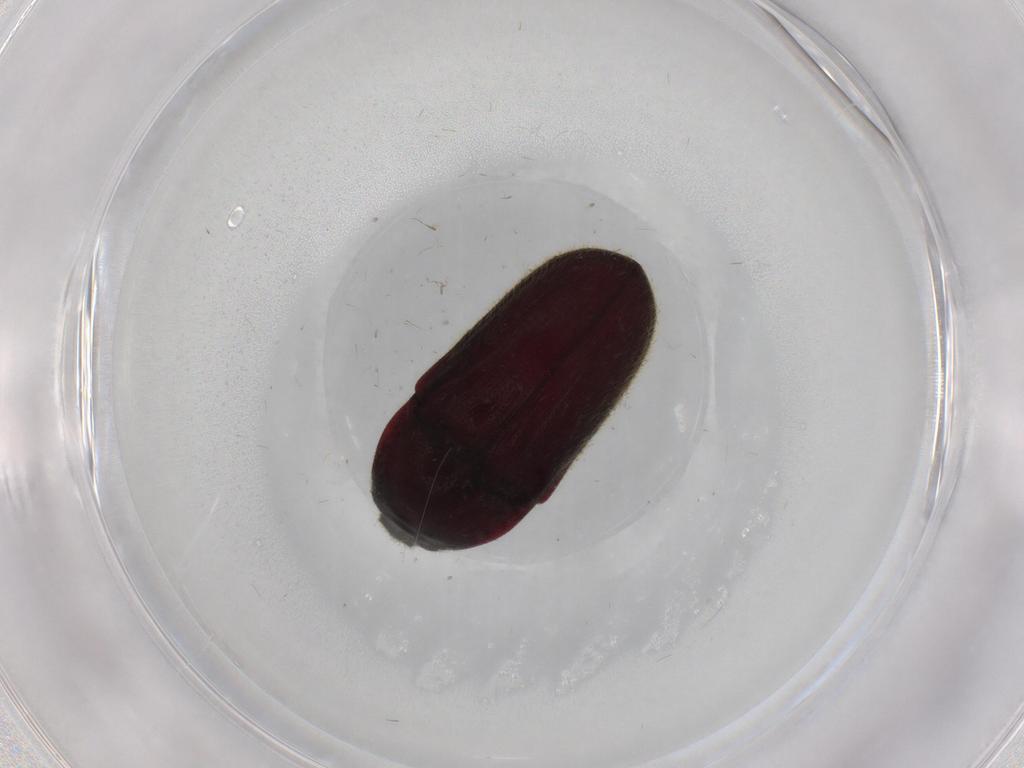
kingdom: Animalia
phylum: Arthropoda
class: Insecta
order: Coleoptera
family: Throscidae
